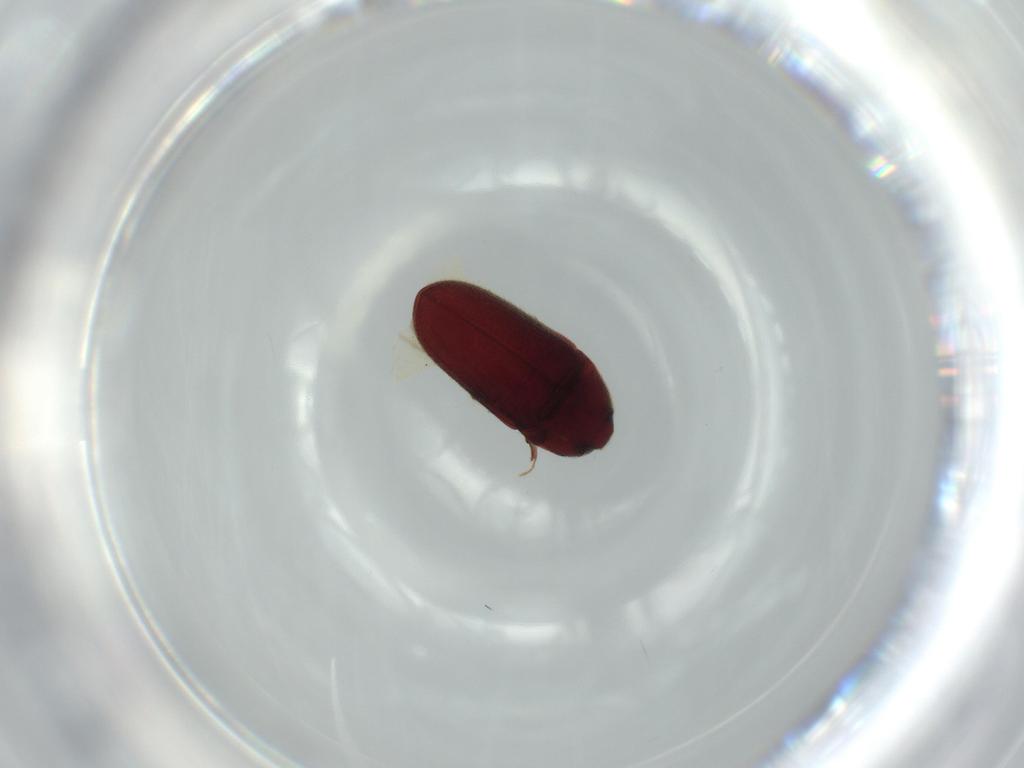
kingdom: Animalia
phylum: Arthropoda
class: Insecta
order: Coleoptera
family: Throscidae
